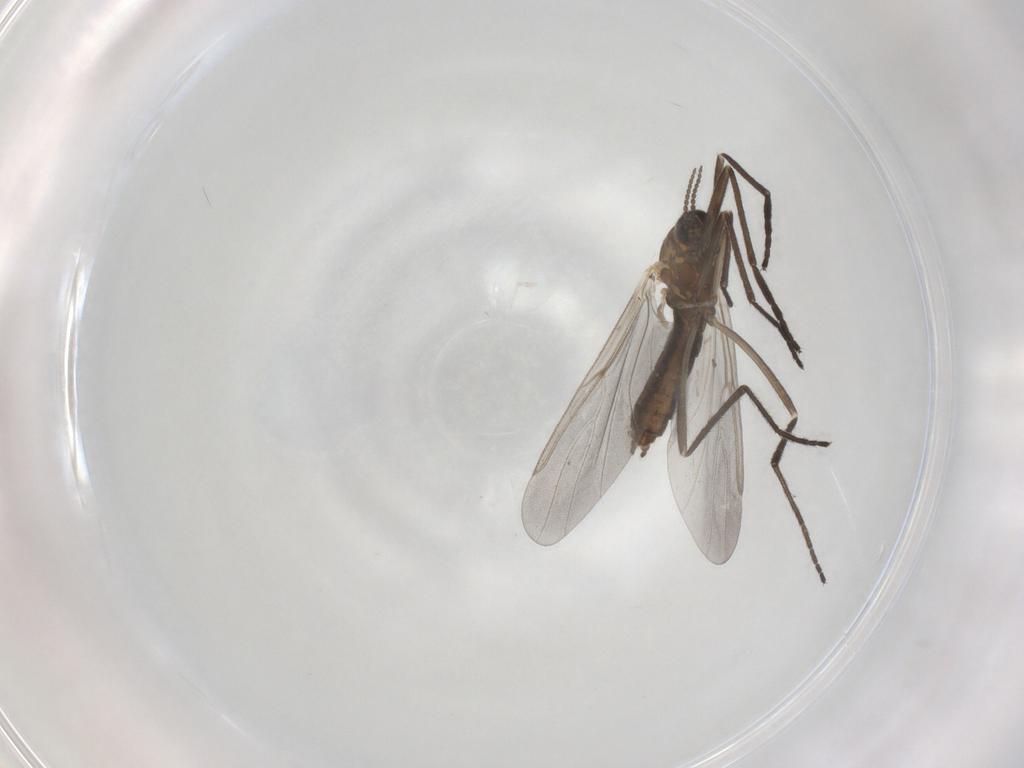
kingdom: Animalia
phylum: Arthropoda
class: Insecta
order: Diptera
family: Cecidomyiidae
